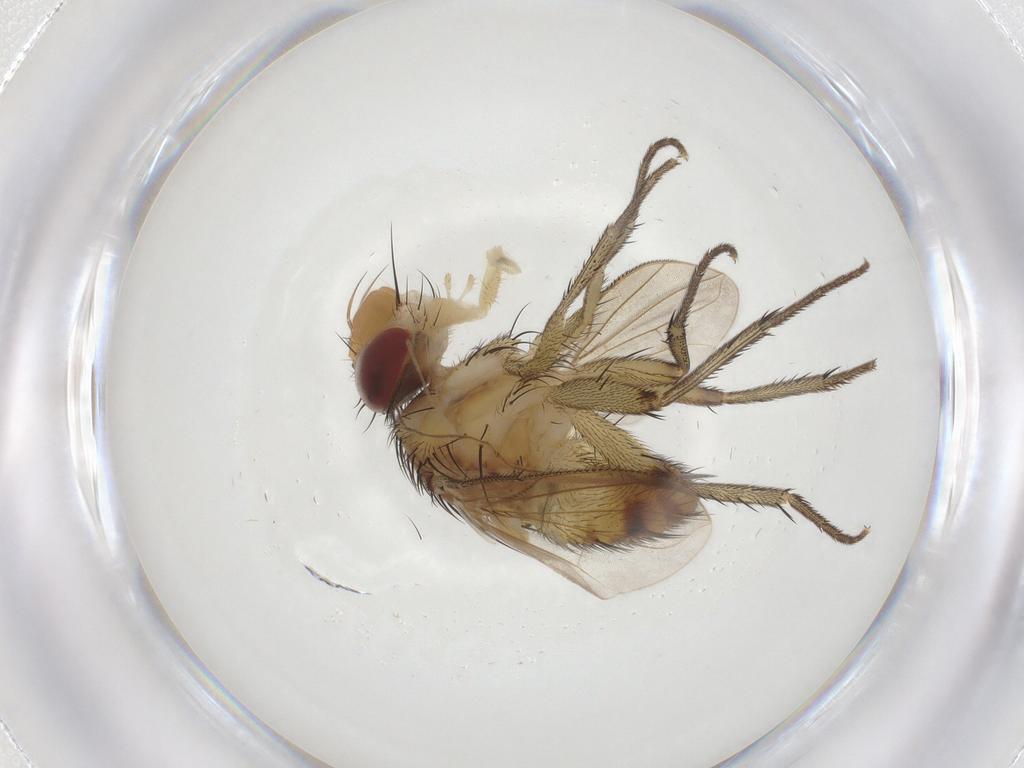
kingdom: Animalia
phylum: Arthropoda
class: Insecta
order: Diptera
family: Tachinidae
